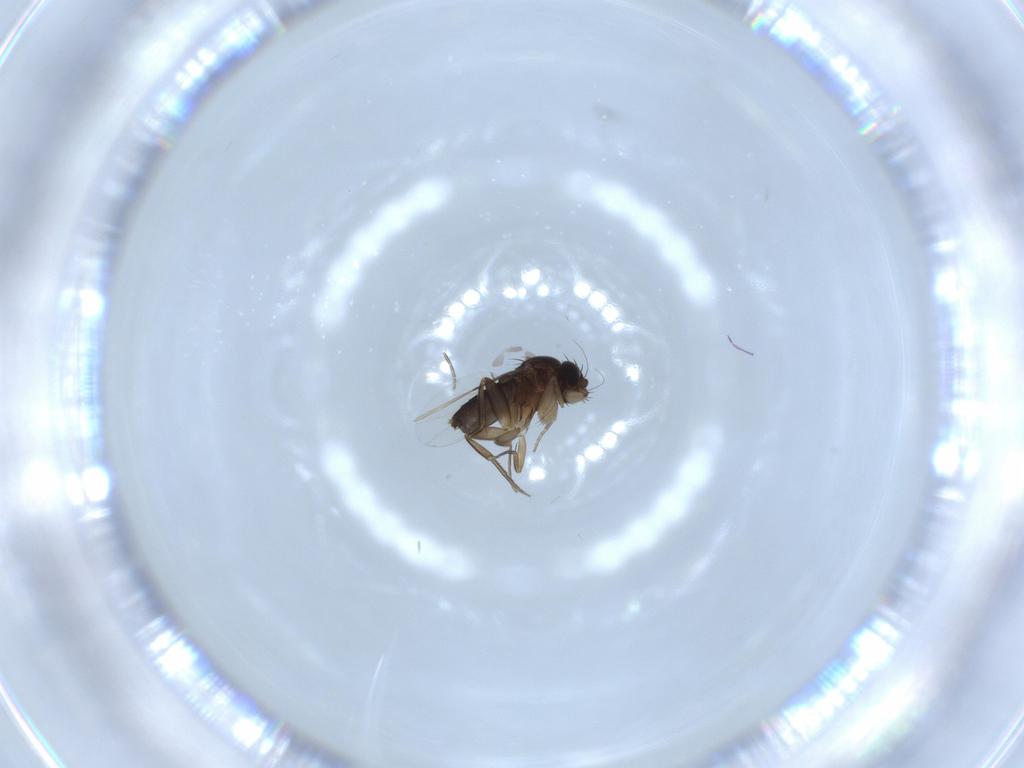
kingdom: Animalia
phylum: Arthropoda
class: Insecta
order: Diptera
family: Phoridae
